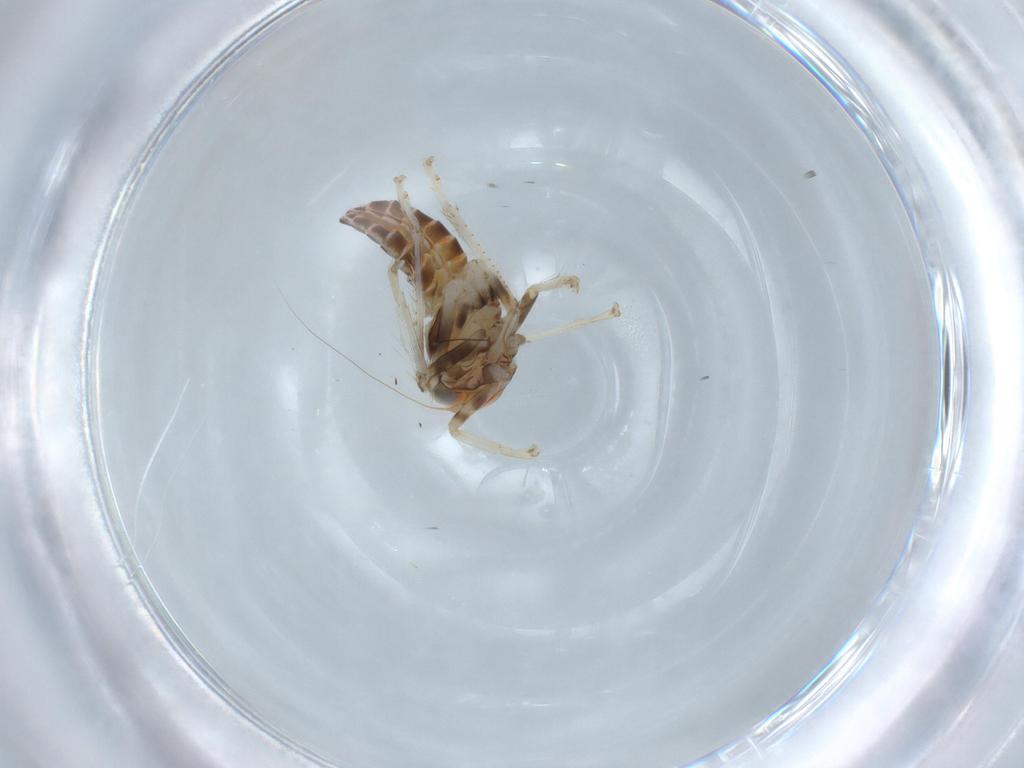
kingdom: Animalia
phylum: Arthropoda
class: Insecta
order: Hemiptera
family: Cicadellidae
